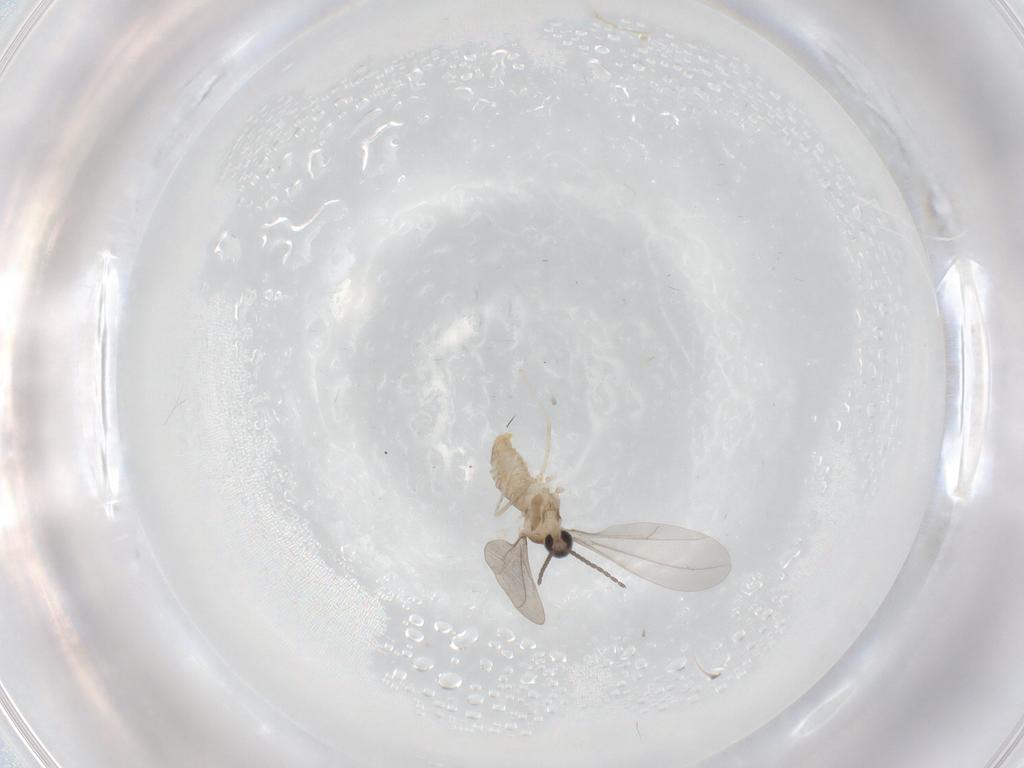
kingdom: Animalia
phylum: Arthropoda
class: Insecta
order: Diptera
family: Cecidomyiidae
